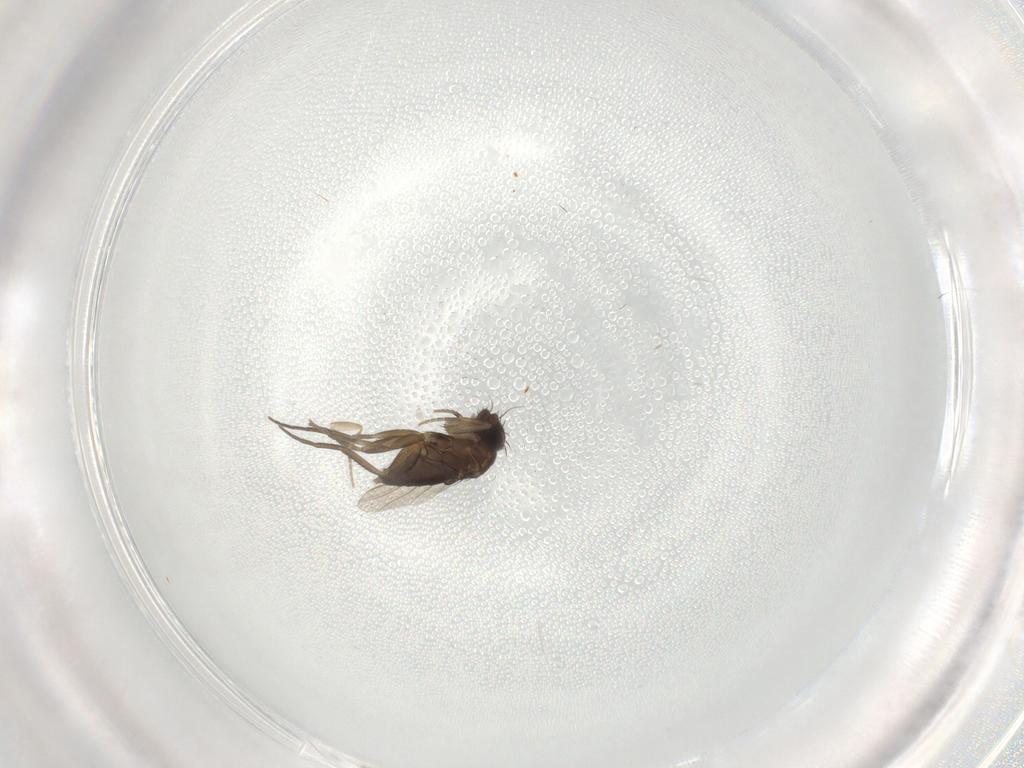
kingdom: Animalia
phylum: Arthropoda
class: Insecta
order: Diptera
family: Phoridae
